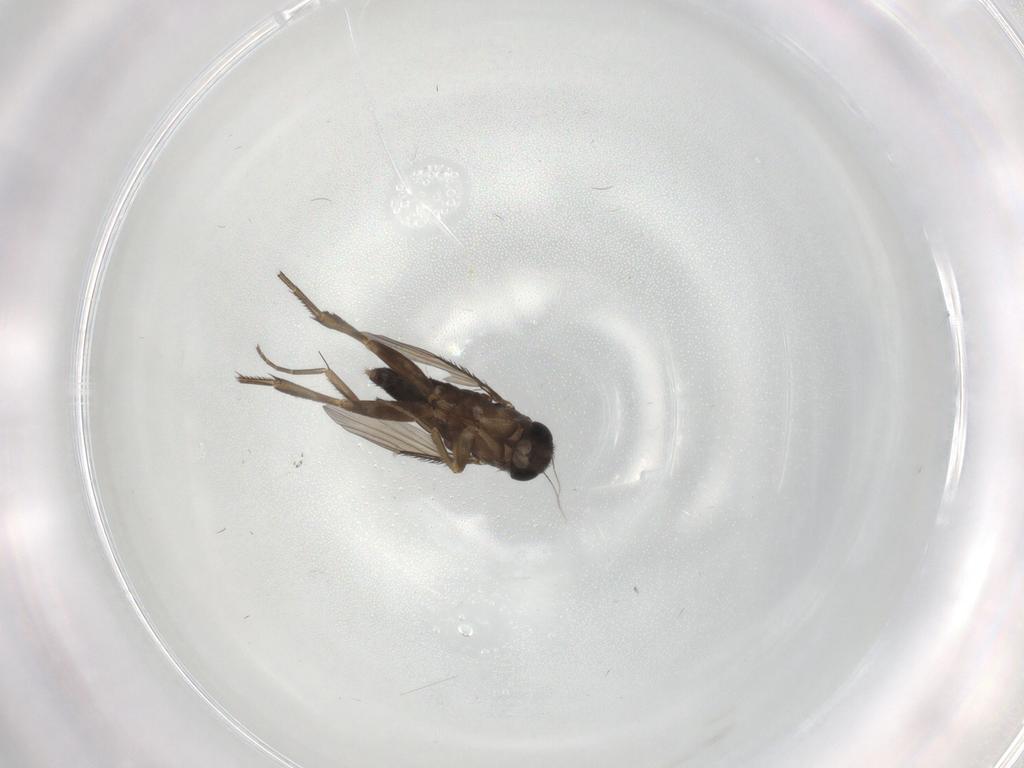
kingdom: Animalia
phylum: Arthropoda
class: Insecta
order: Diptera
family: Phoridae
